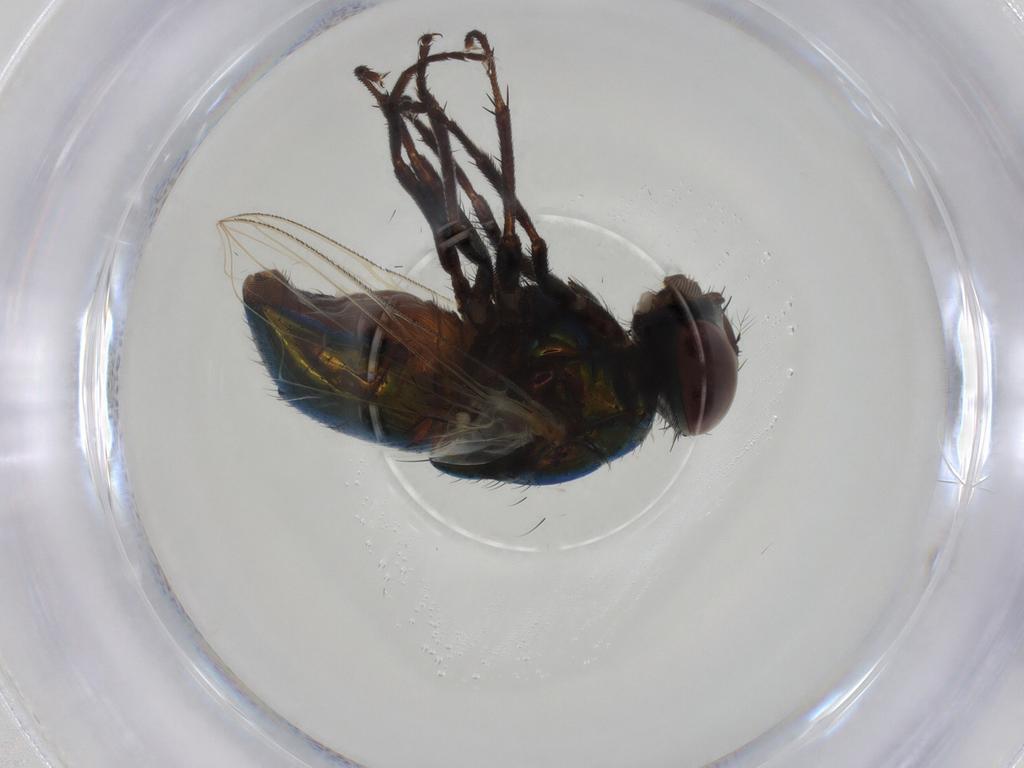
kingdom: Animalia
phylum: Arthropoda
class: Insecta
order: Diptera
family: Muscidae
